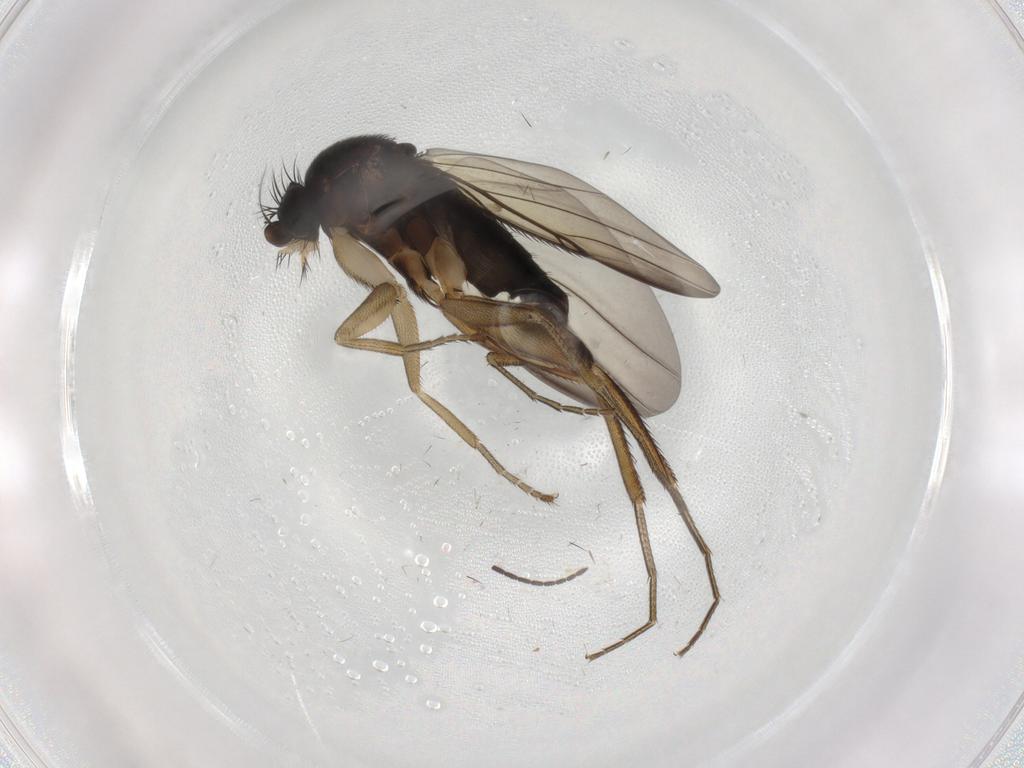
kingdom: Animalia
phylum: Arthropoda
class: Insecta
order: Diptera
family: Sciaridae
